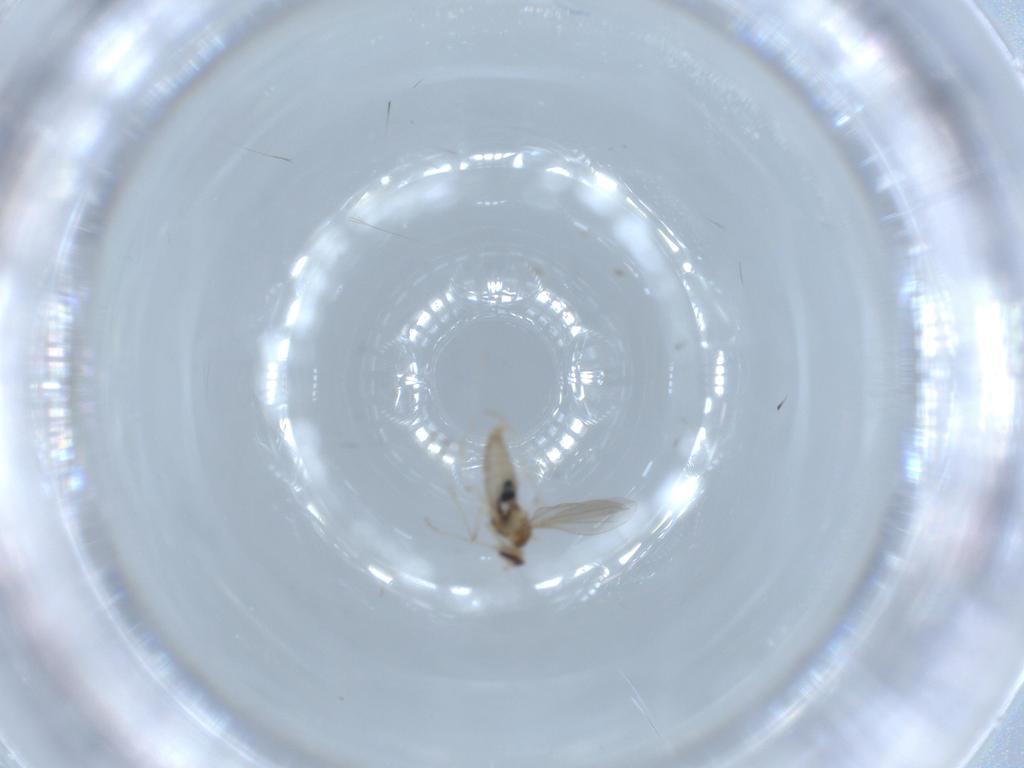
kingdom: Animalia
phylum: Arthropoda
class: Insecta
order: Diptera
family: Cecidomyiidae
